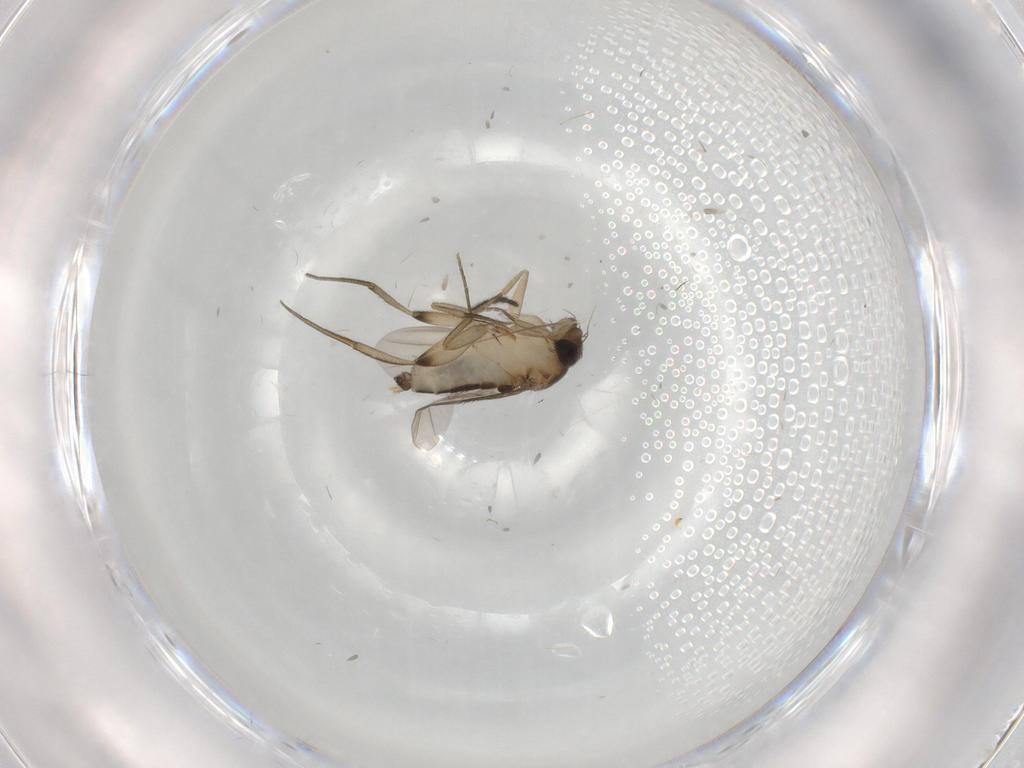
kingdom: Animalia
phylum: Arthropoda
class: Insecta
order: Diptera
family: Phoridae
